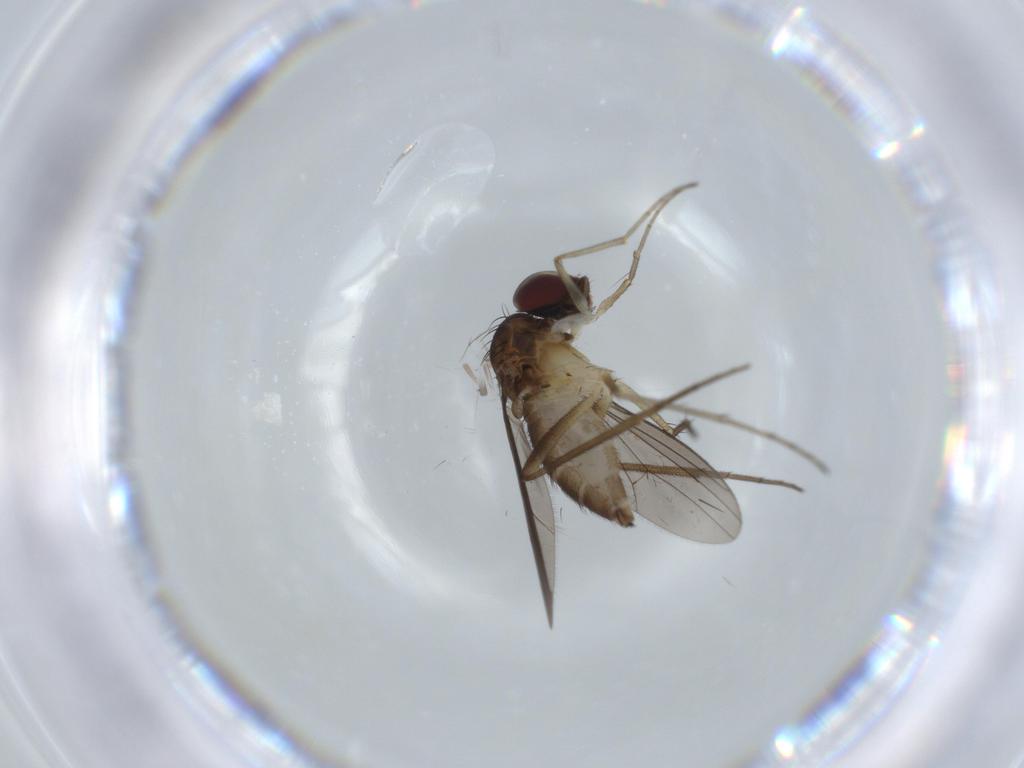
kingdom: Animalia
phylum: Arthropoda
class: Insecta
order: Diptera
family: Dolichopodidae
